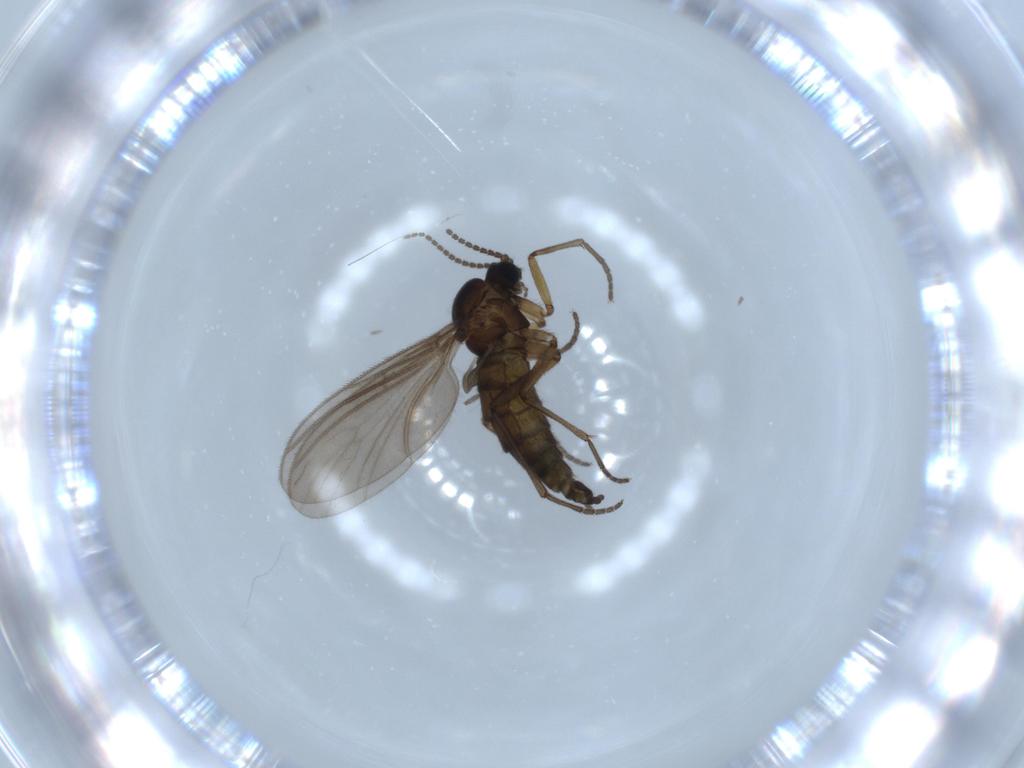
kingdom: Animalia
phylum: Arthropoda
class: Insecta
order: Diptera
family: Sciaridae
